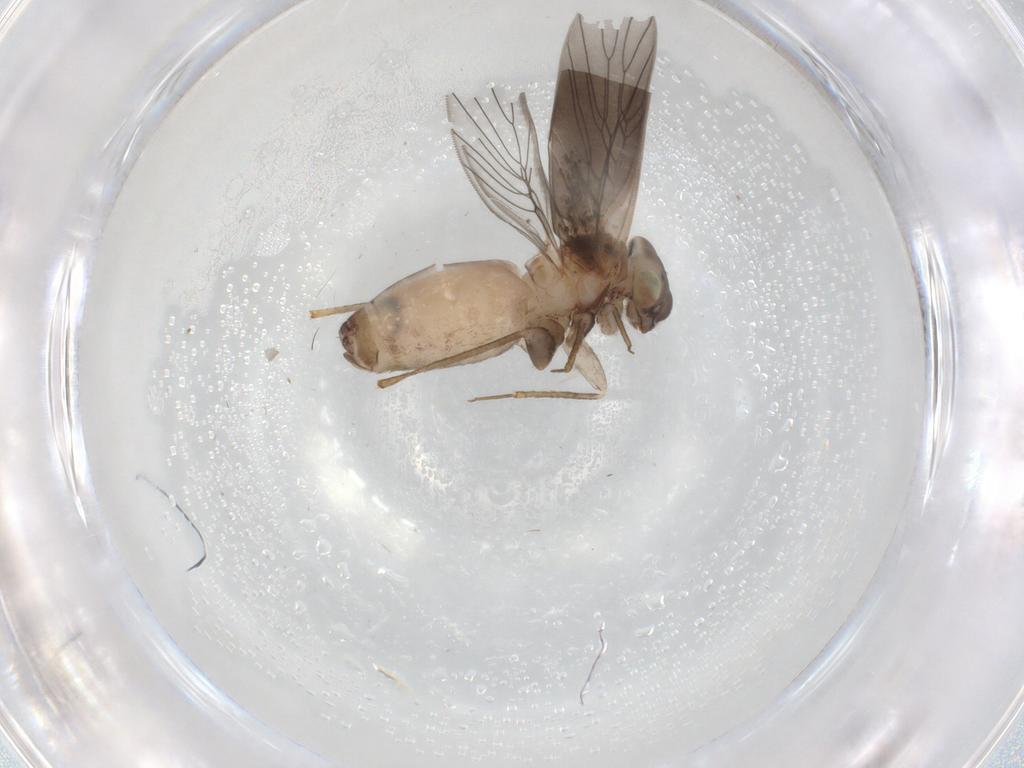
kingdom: Animalia
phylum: Arthropoda
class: Insecta
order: Psocodea
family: Lepidopsocidae
